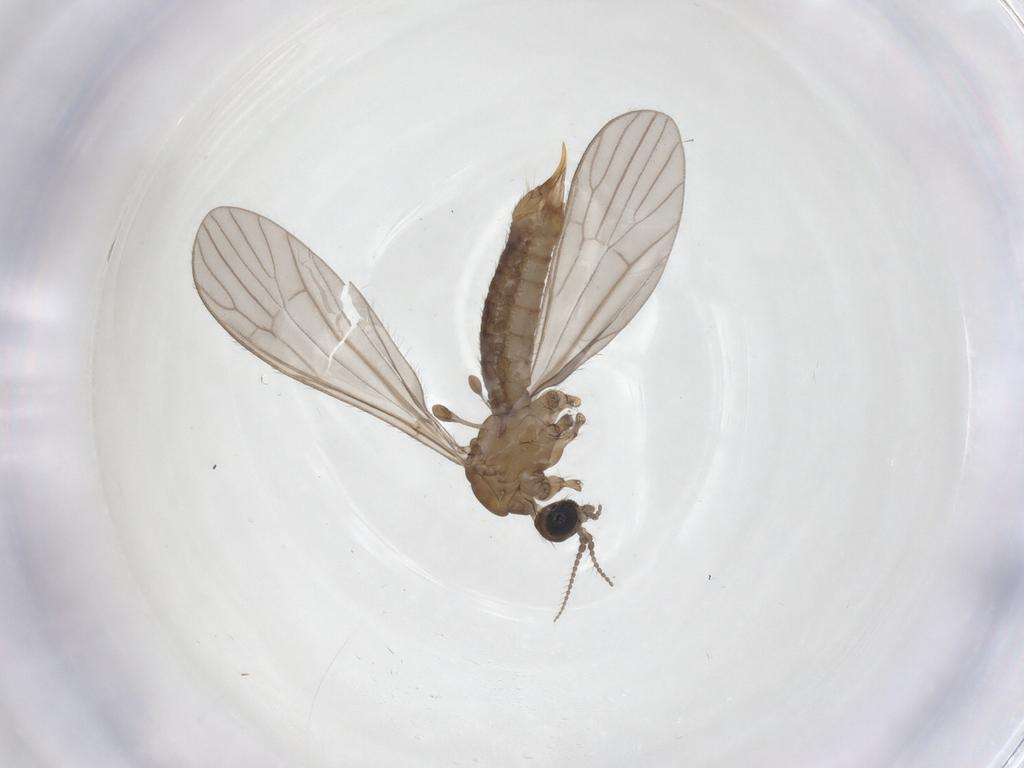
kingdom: Animalia
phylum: Arthropoda
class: Insecta
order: Diptera
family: Limoniidae
